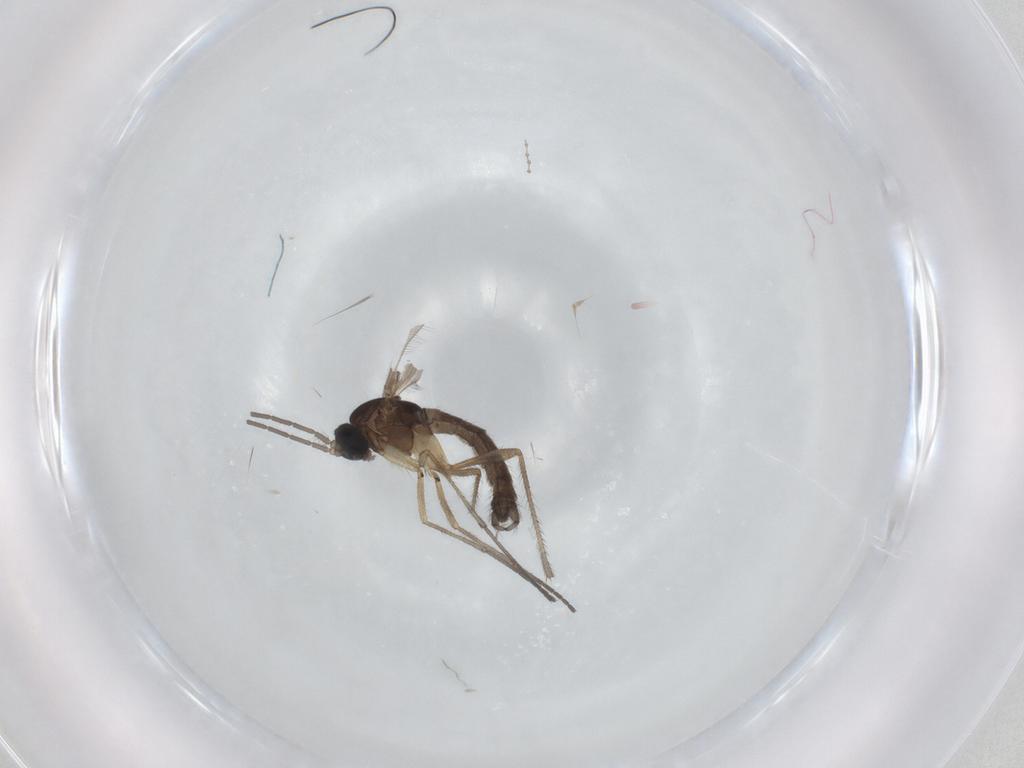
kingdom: Animalia
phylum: Arthropoda
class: Insecta
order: Diptera
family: Sciaridae
